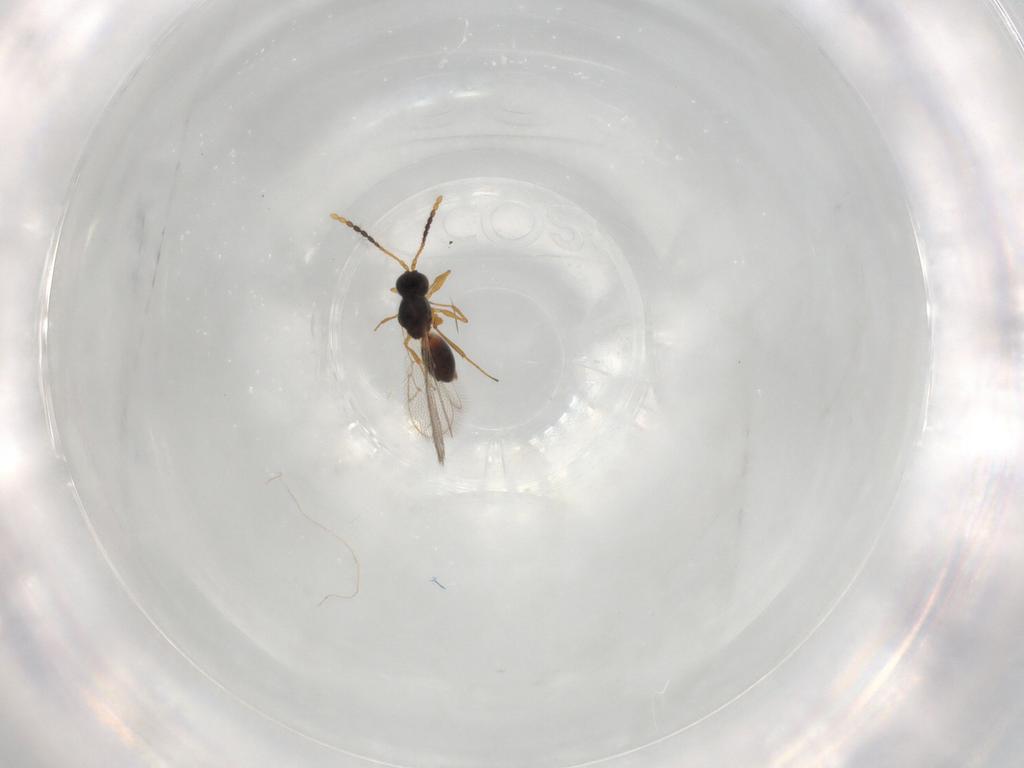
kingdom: Animalia
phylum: Arthropoda
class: Insecta
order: Hymenoptera
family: Figitidae
